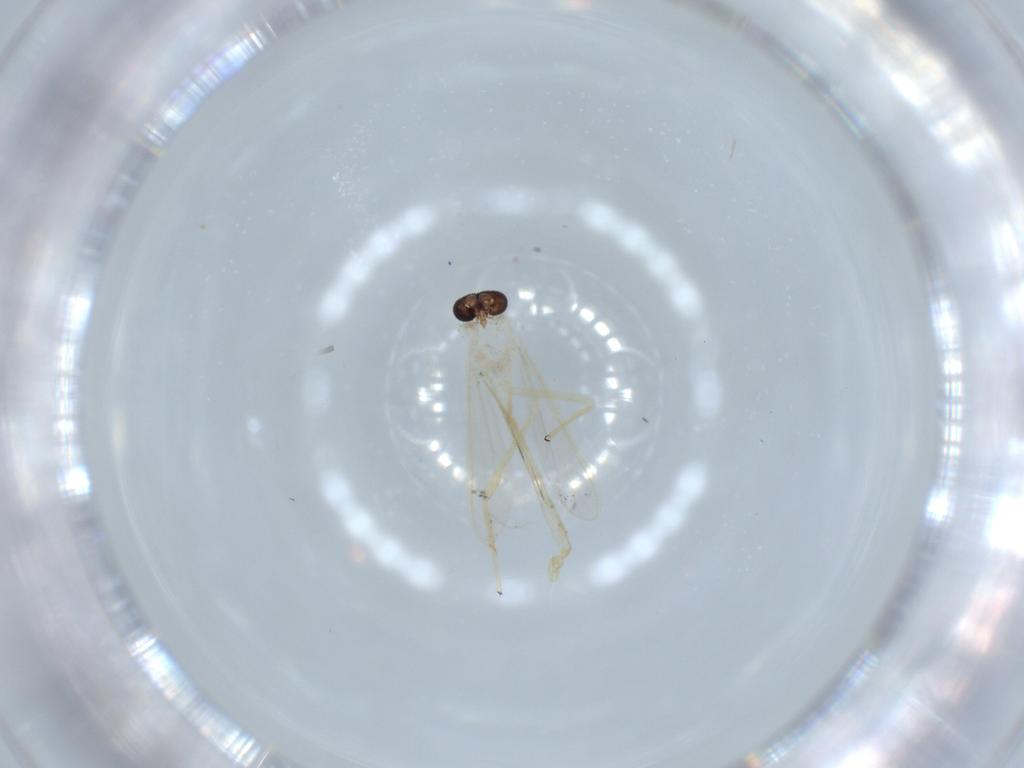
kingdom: Animalia
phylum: Arthropoda
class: Insecta
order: Diptera
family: Chironomidae
